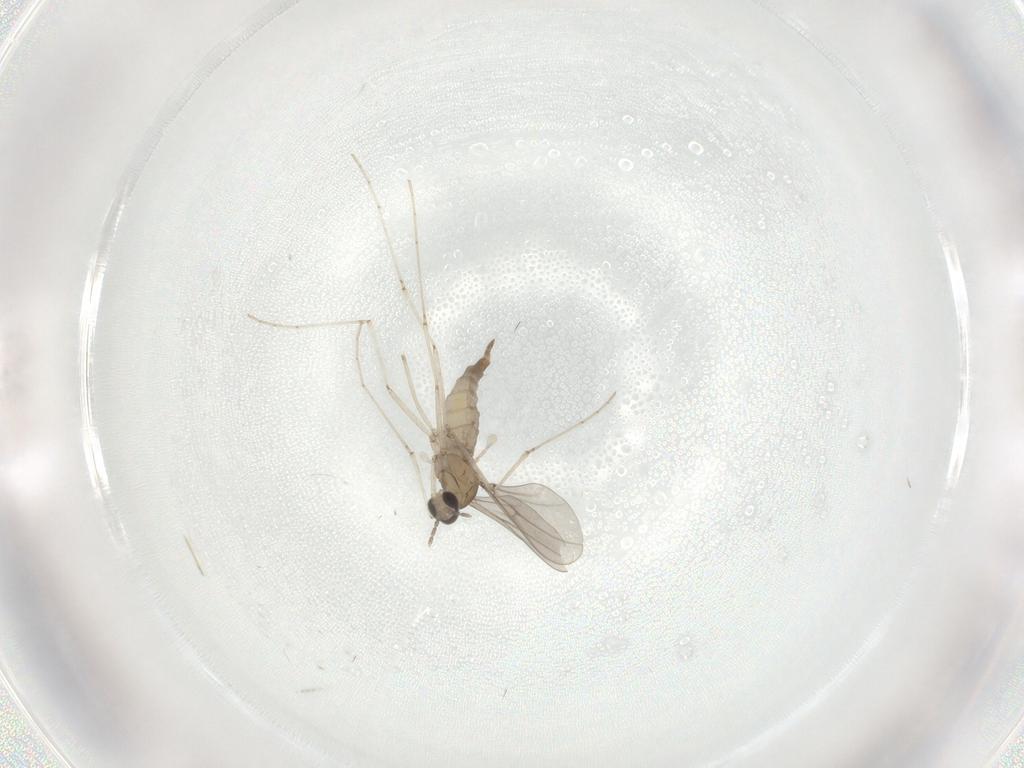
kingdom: Animalia
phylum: Arthropoda
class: Insecta
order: Diptera
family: Cecidomyiidae
